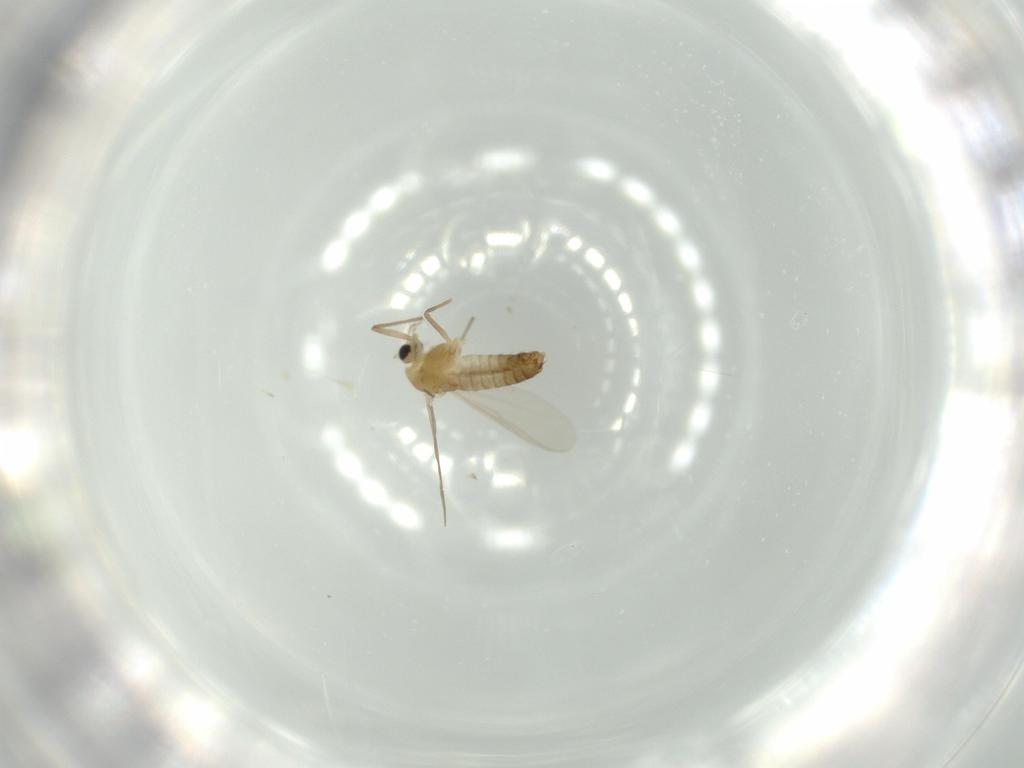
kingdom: Animalia
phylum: Arthropoda
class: Insecta
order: Diptera
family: Chironomidae
